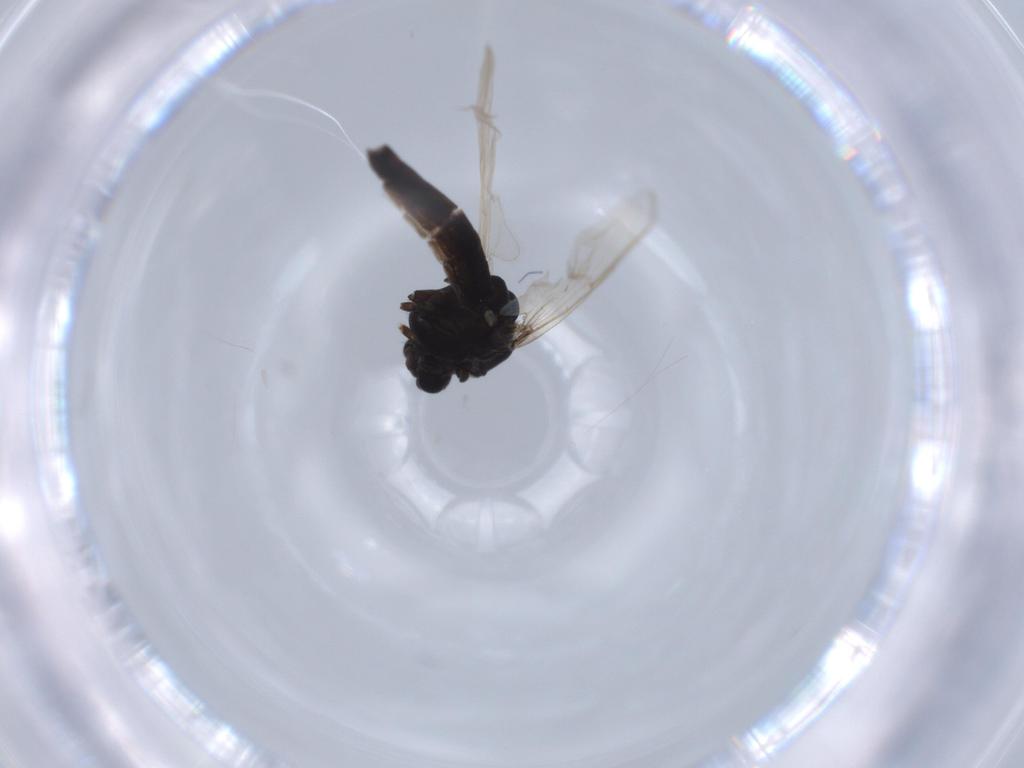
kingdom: Animalia
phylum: Arthropoda
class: Insecta
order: Diptera
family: Chironomidae
